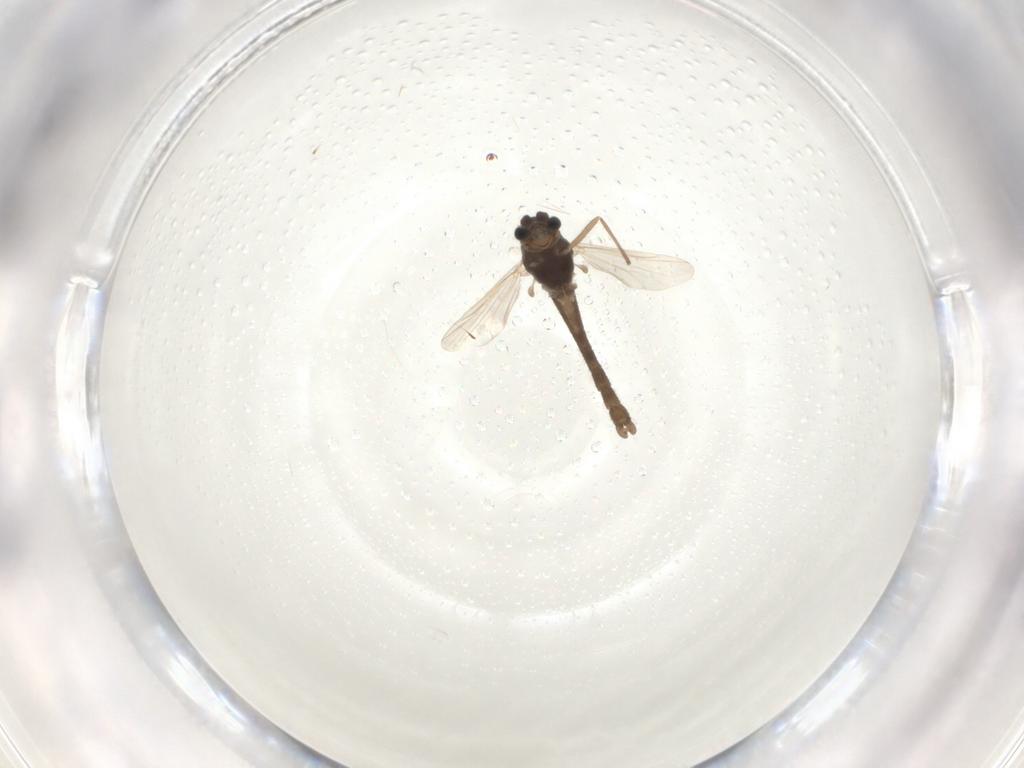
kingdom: Animalia
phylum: Arthropoda
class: Insecta
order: Diptera
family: Chironomidae
